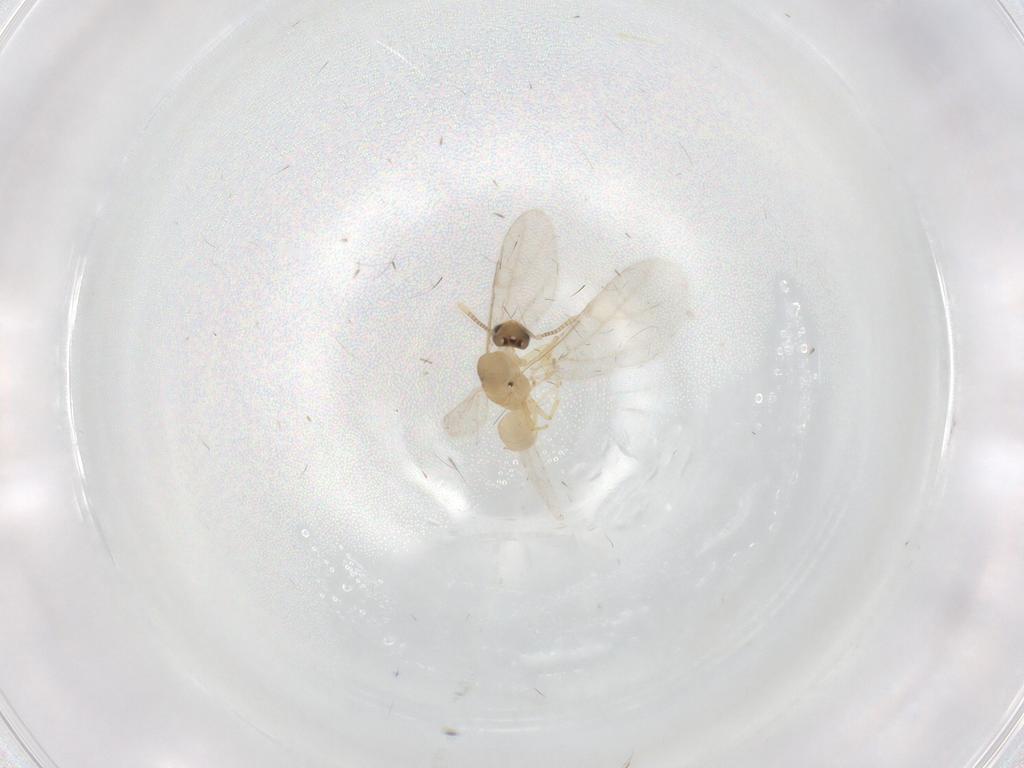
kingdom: Animalia
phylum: Arthropoda
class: Insecta
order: Hymenoptera
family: Formicidae
